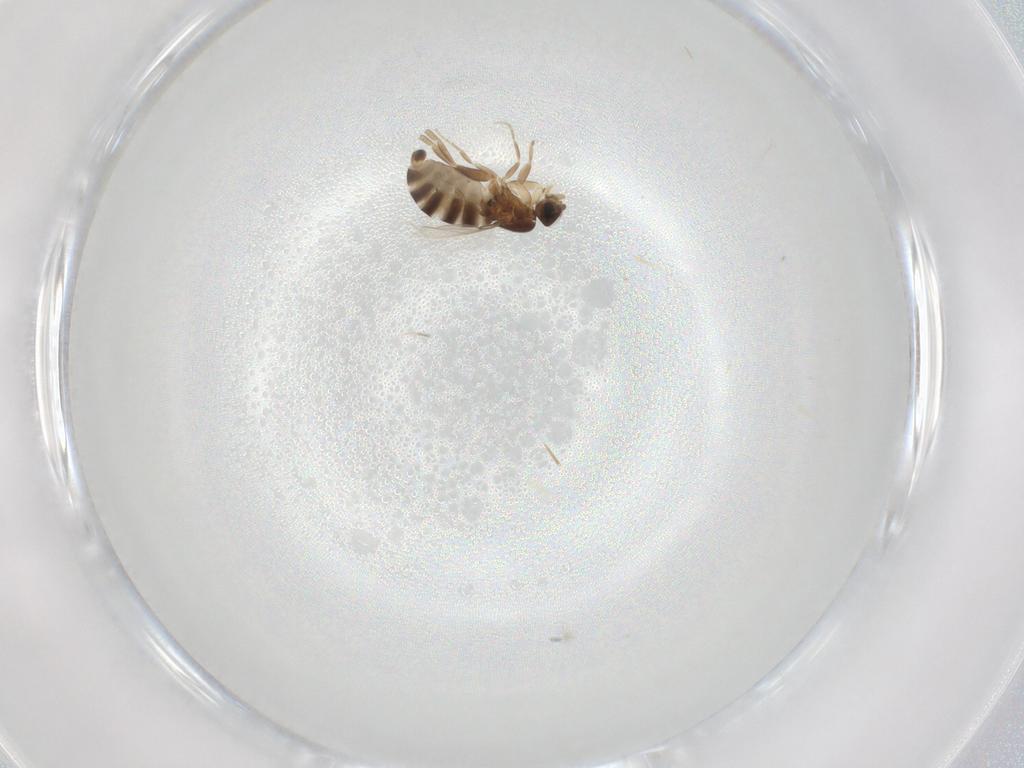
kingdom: Animalia
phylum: Arthropoda
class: Insecta
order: Diptera
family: Phoridae
